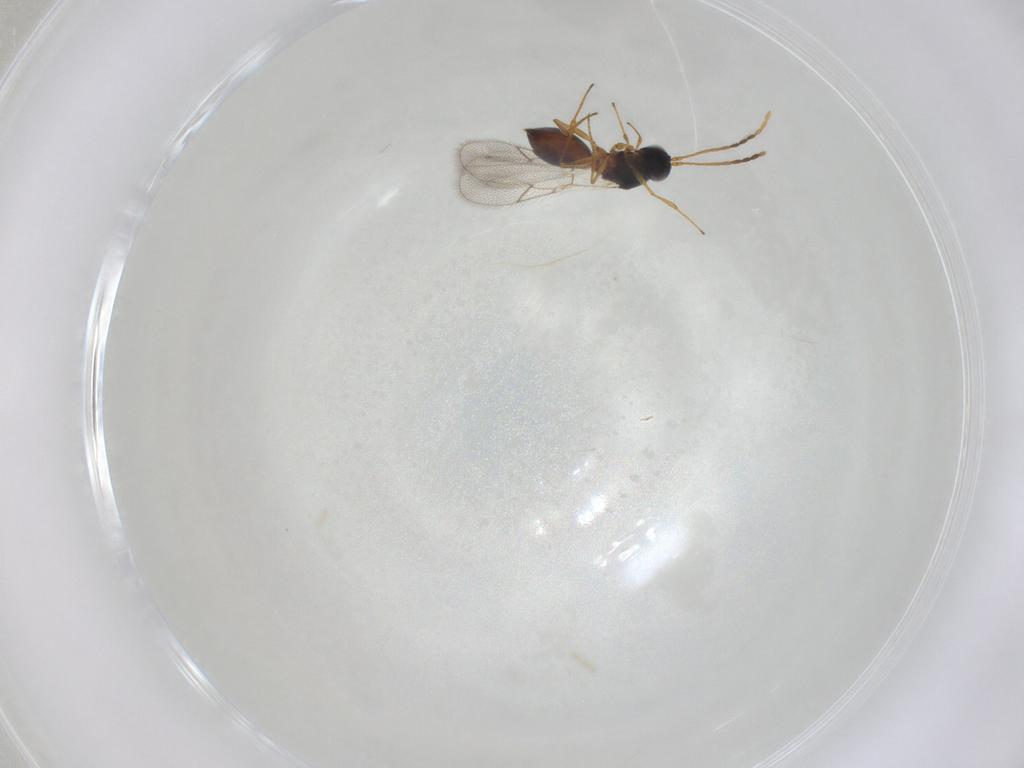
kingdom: Animalia
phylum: Arthropoda
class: Insecta
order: Hymenoptera
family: Figitidae
